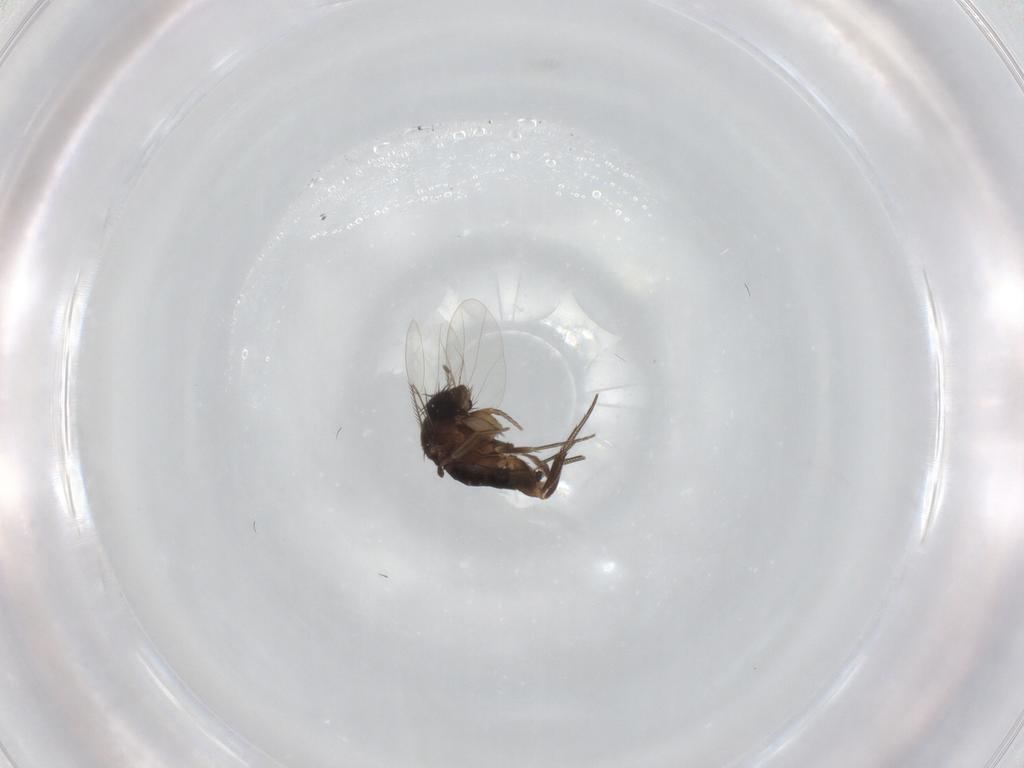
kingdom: Animalia
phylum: Arthropoda
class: Insecta
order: Diptera
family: Phoridae
